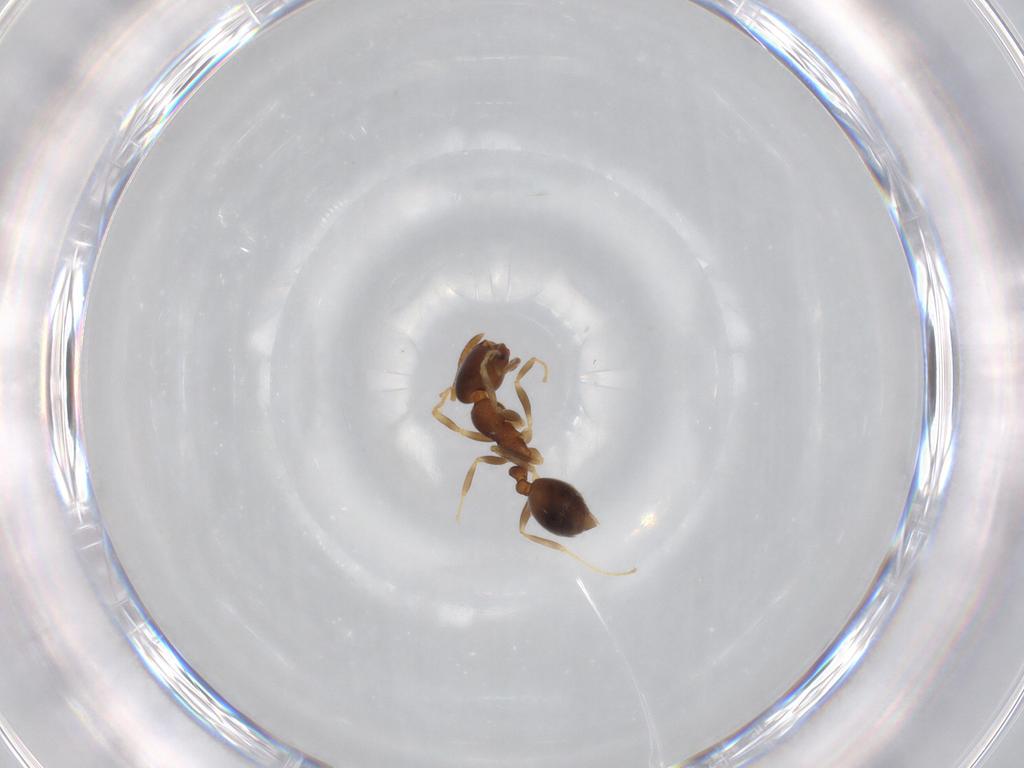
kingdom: Animalia
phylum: Arthropoda
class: Insecta
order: Hymenoptera
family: Formicidae
